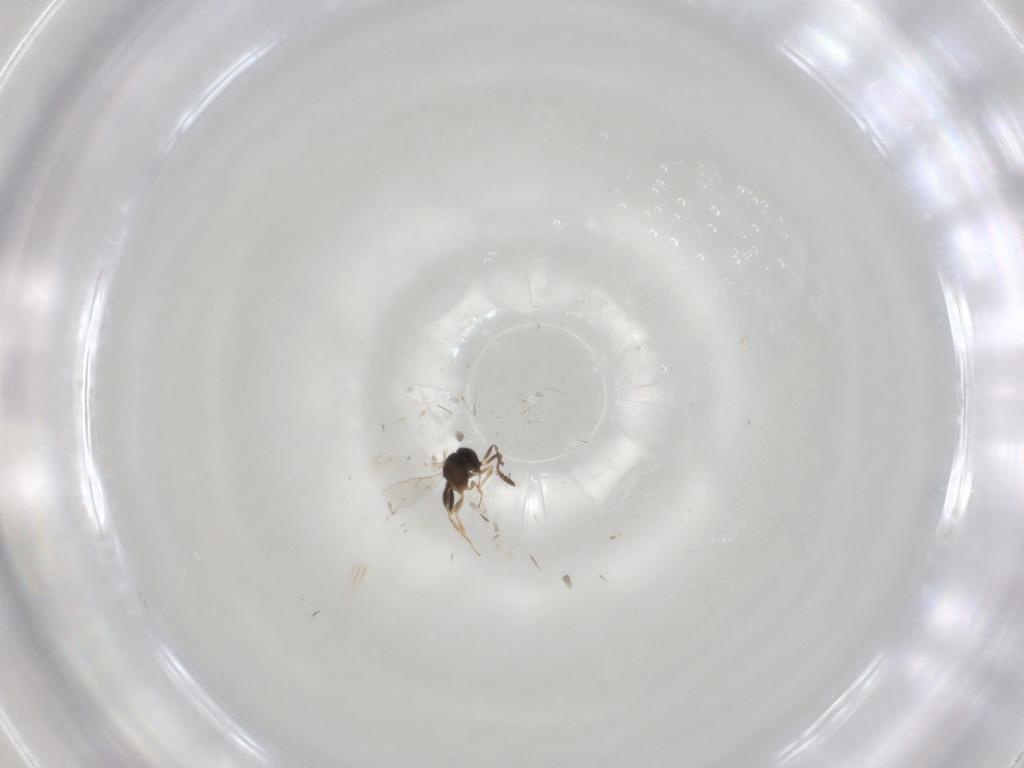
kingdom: Animalia
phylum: Arthropoda
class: Insecta
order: Hymenoptera
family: Scelionidae
